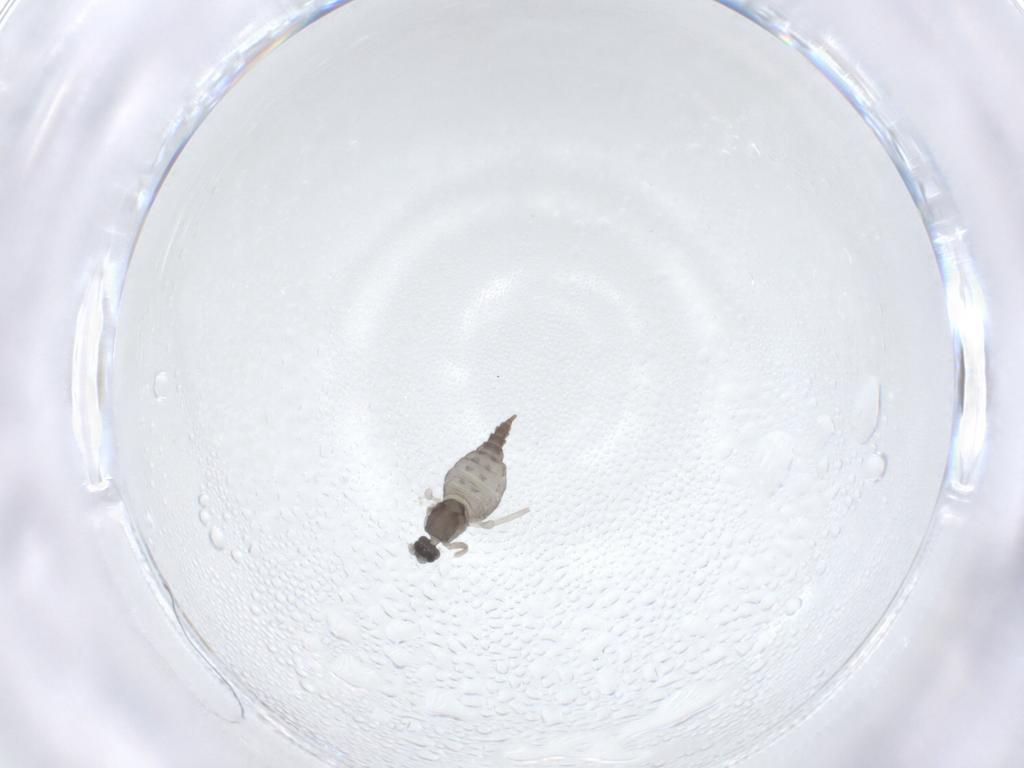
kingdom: Animalia
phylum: Arthropoda
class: Insecta
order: Diptera
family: Cecidomyiidae
